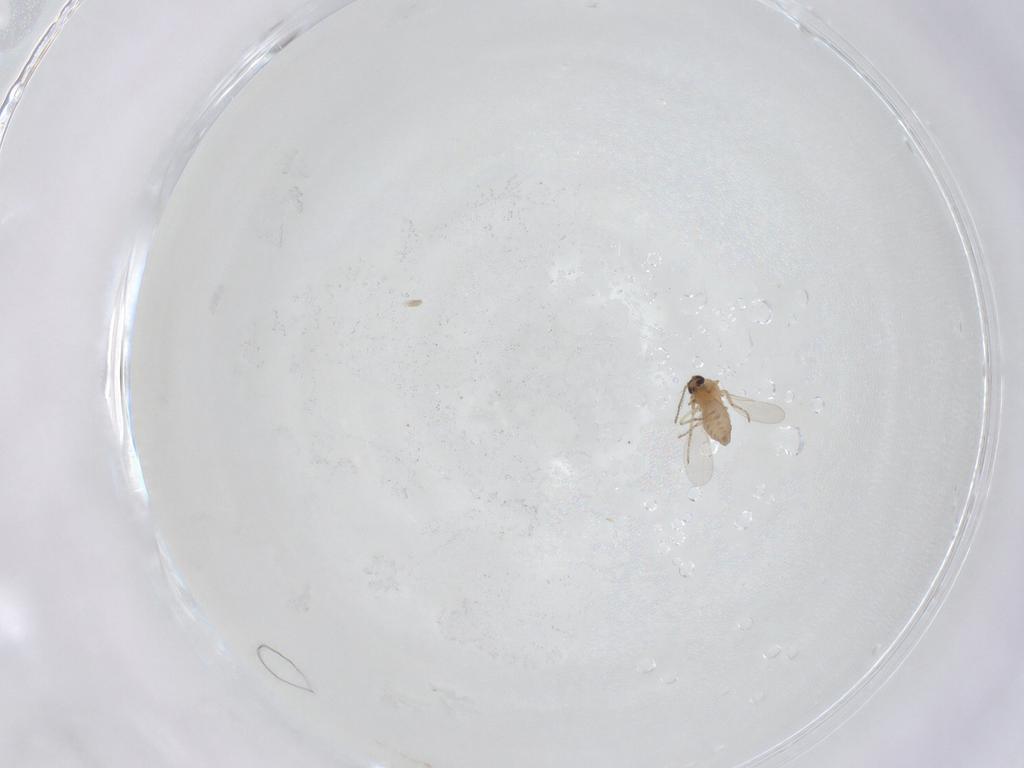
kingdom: Animalia
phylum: Arthropoda
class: Insecta
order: Diptera
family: Ceratopogonidae
